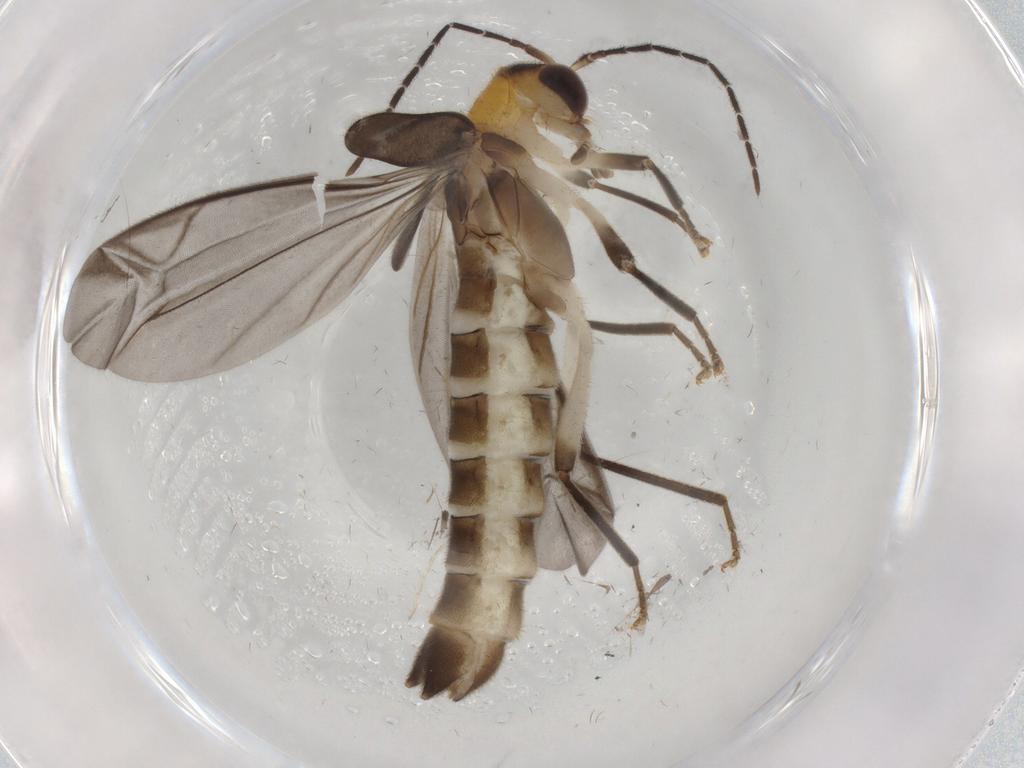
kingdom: Animalia
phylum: Arthropoda
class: Insecta
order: Coleoptera
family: Cantharidae
